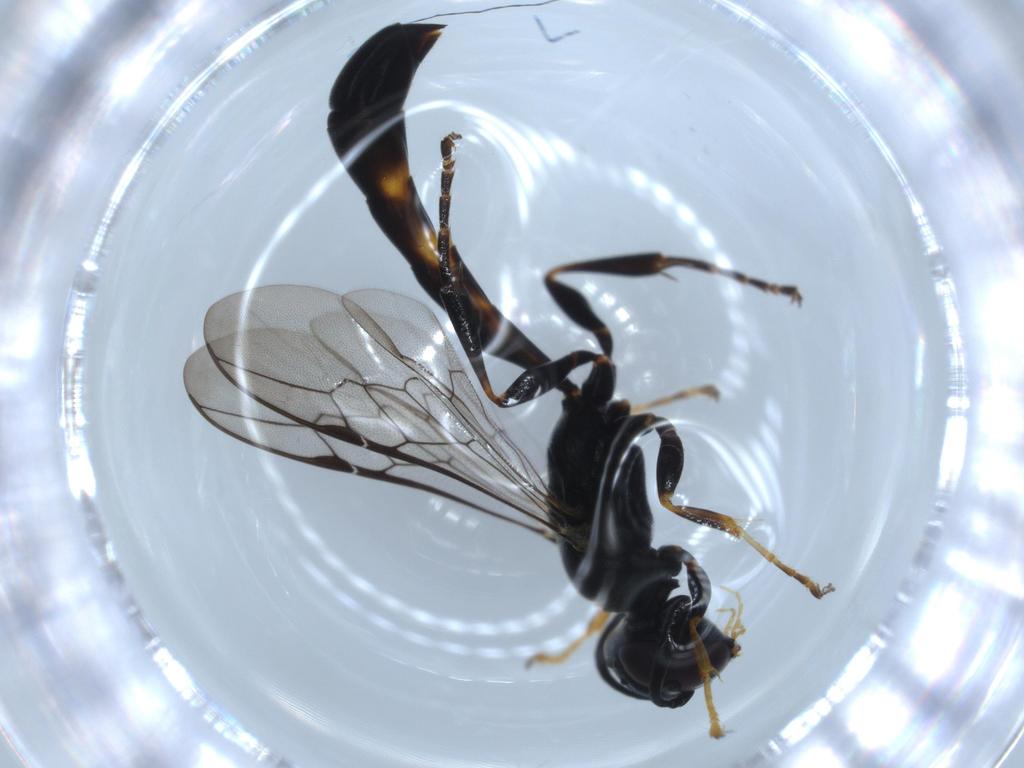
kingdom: Animalia
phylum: Arthropoda
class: Insecta
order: Hymenoptera
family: Crabronidae
